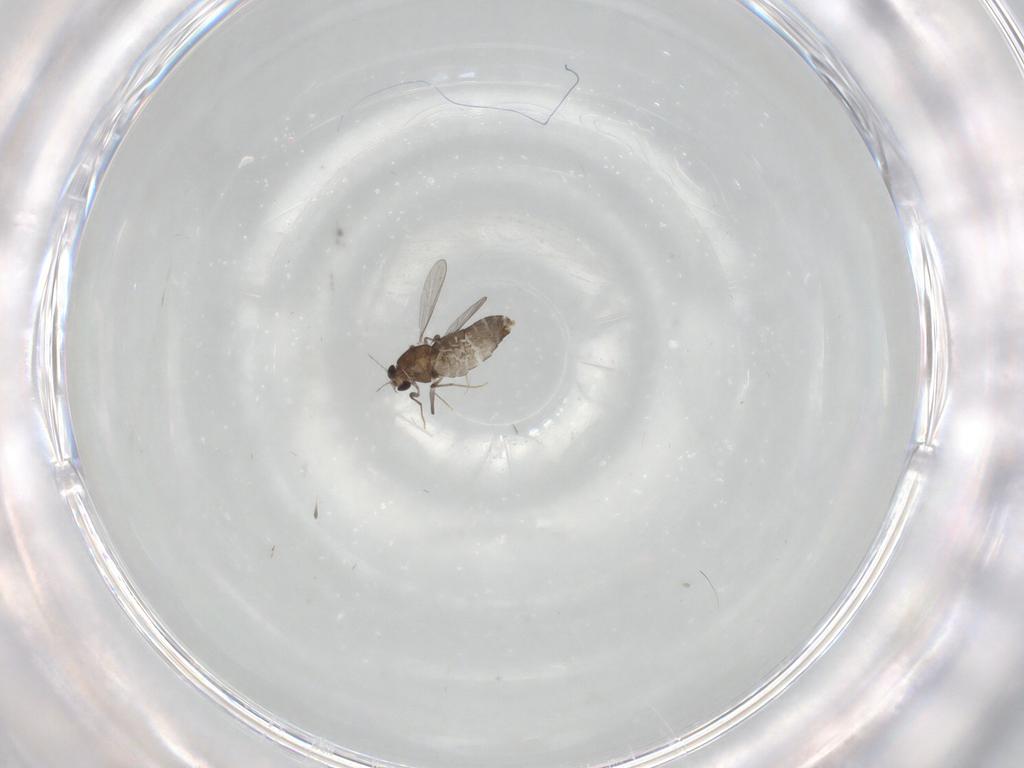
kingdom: Animalia
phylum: Arthropoda
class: Insecta
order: Diptera
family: Chironomidae
